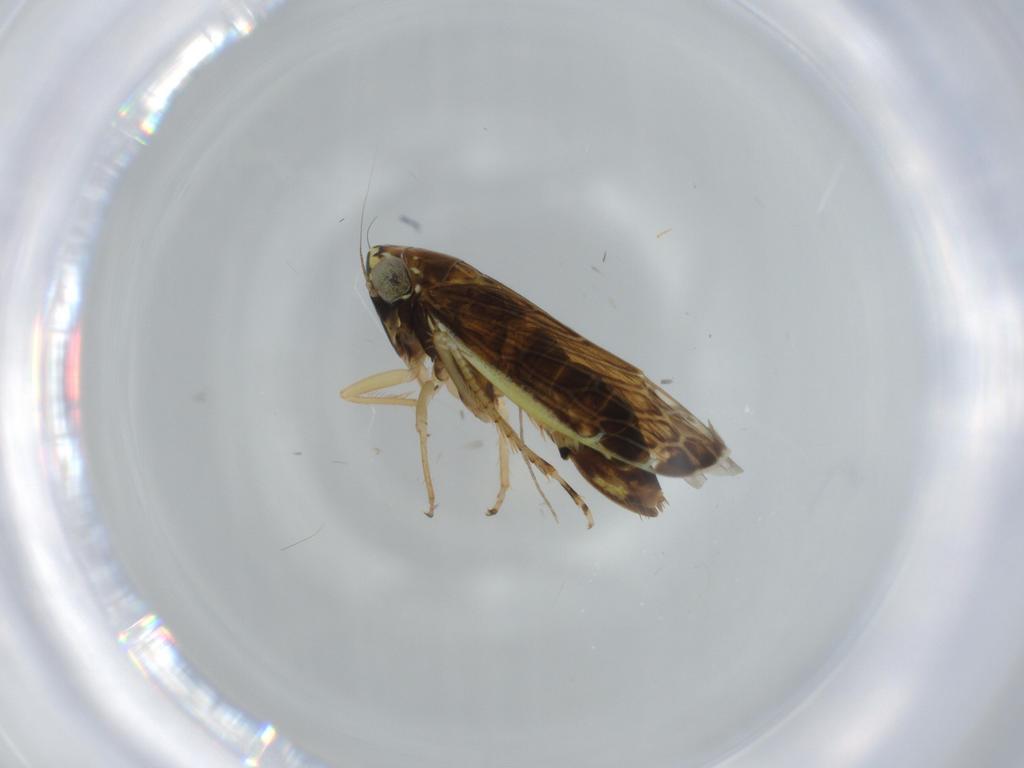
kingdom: Animalia
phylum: Arthropoda
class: Insecta
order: Hemiptera
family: Cicadellidae
